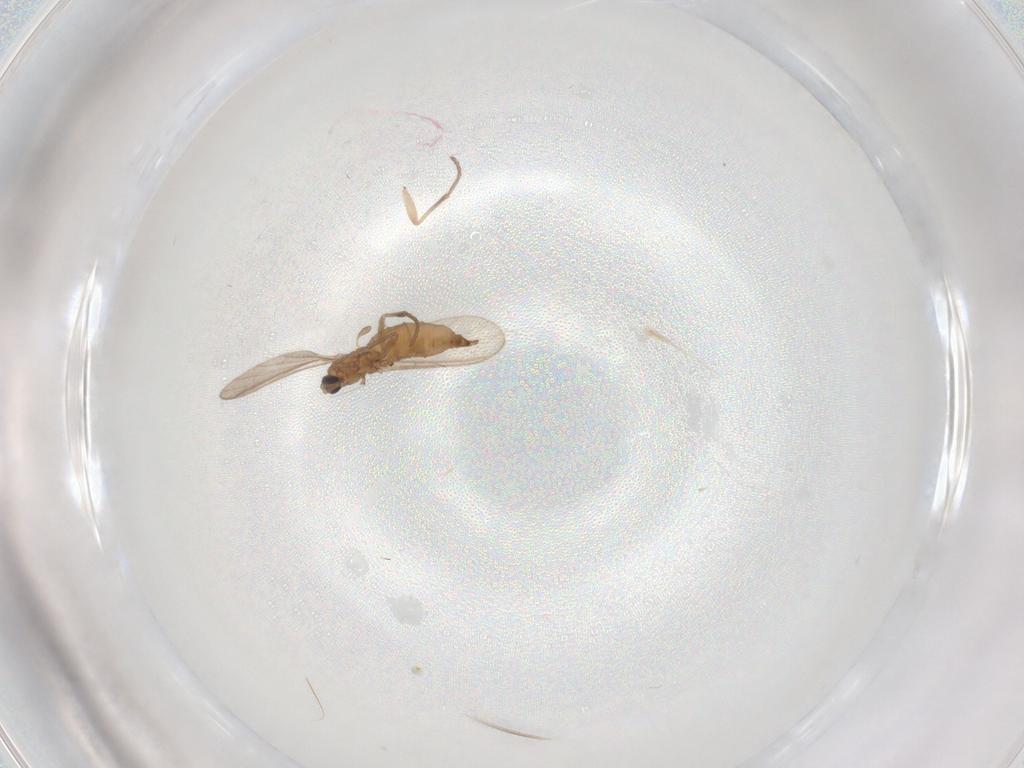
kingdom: Animalia
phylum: Arthropoda
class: Insecta
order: Diptera
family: Sciaridae
